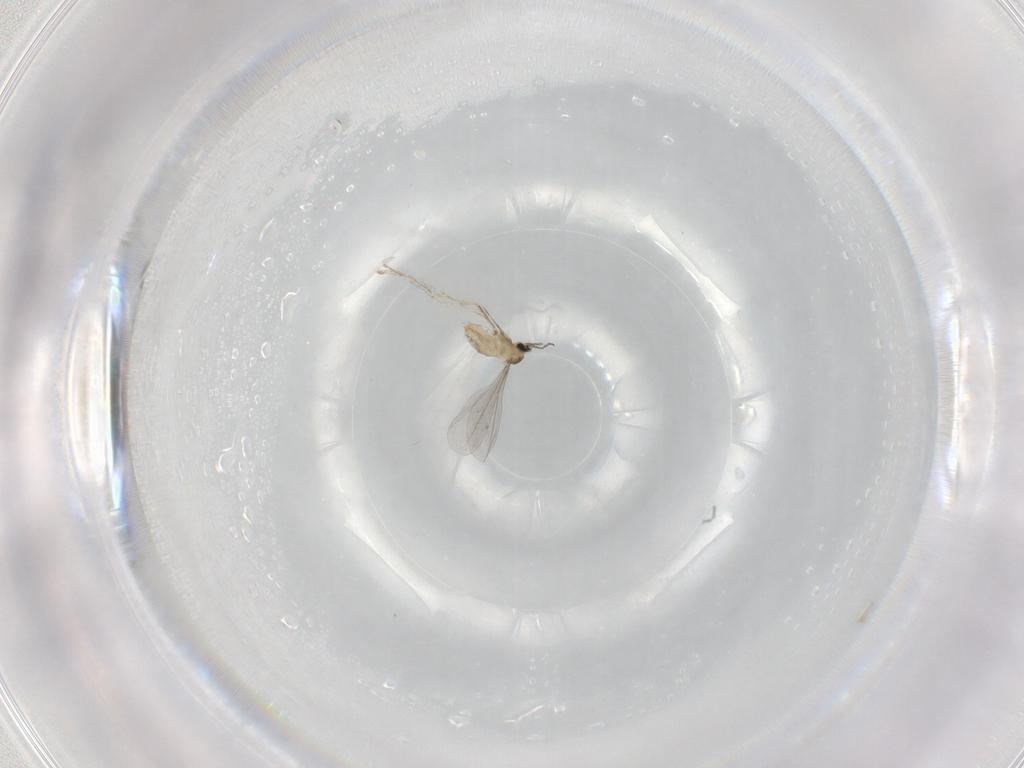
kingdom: Animalia
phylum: Arthropoda
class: Insecta
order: Diptera
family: Cecidomyiidae
